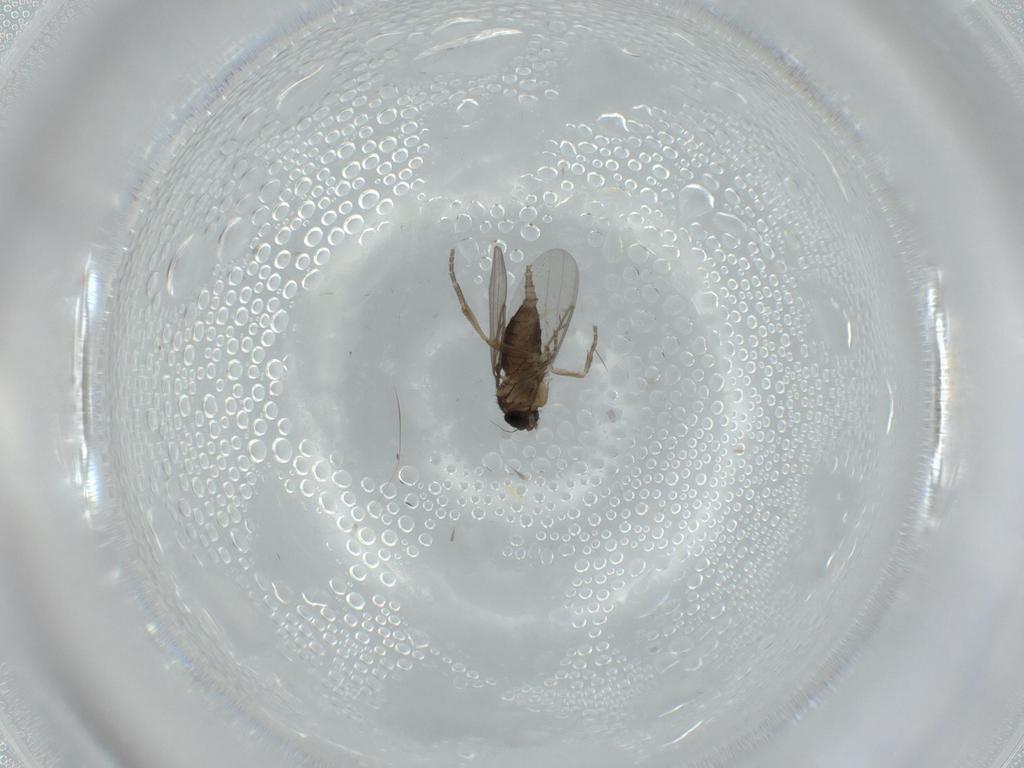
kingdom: Animalia
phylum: Arthropoda
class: Insecta
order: Diptera
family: Phoridae
